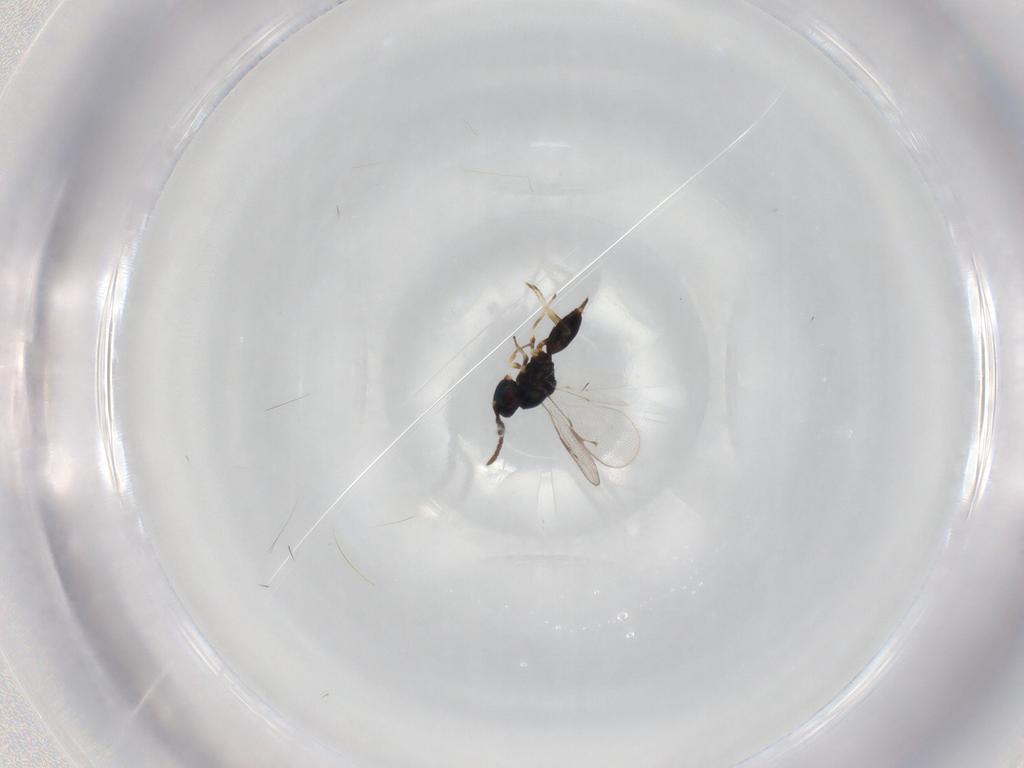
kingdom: Animalia
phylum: Arthropoda
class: Insecta
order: Hymenoptera
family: Pteromalidae
